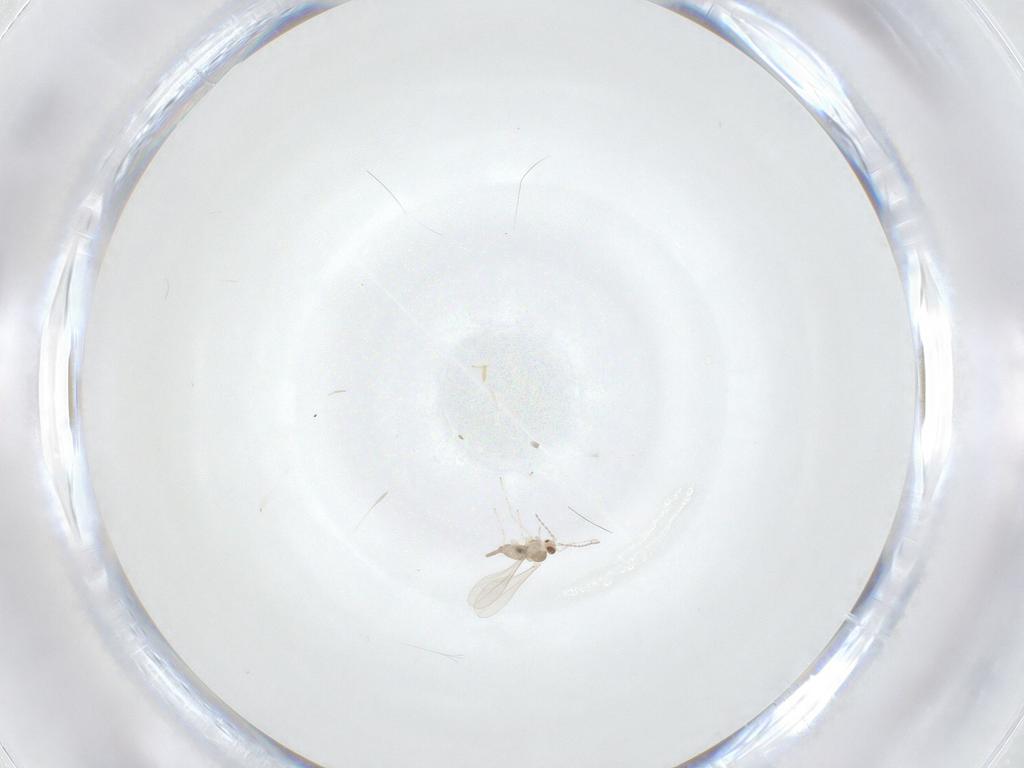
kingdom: Animalia
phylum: Arthropoda
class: Insecta
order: Diptera
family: Cecidomyiidae
